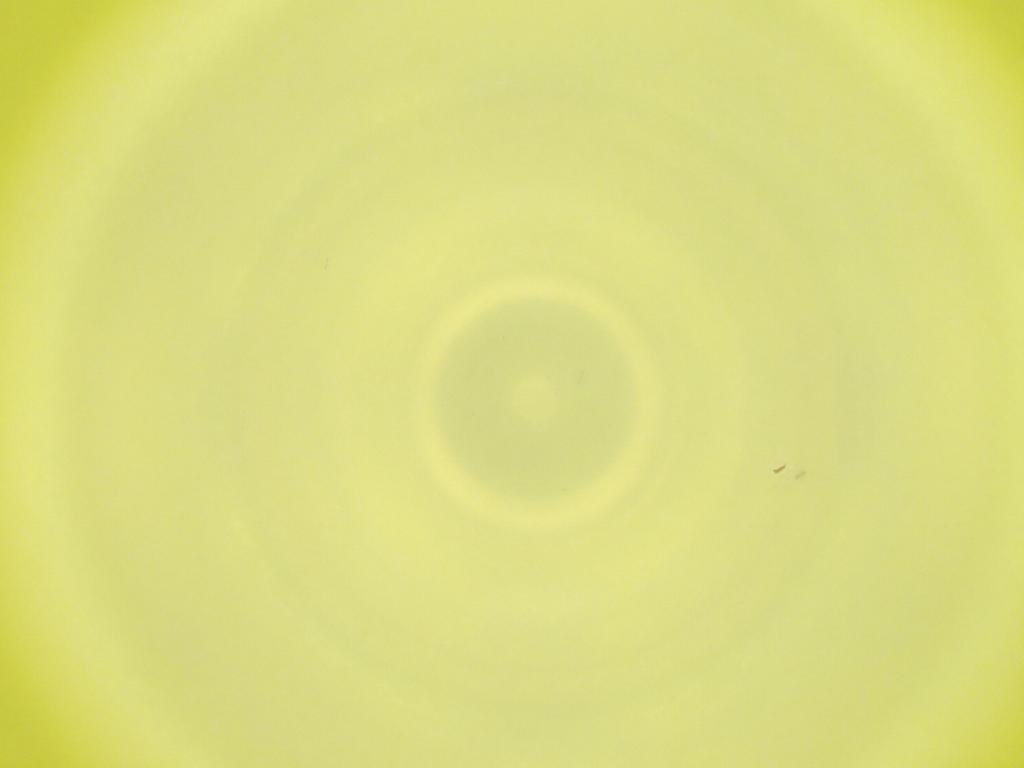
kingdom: Animalia
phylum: Arthropoda
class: Insecta
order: Diptera
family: Cecidomyiidae
